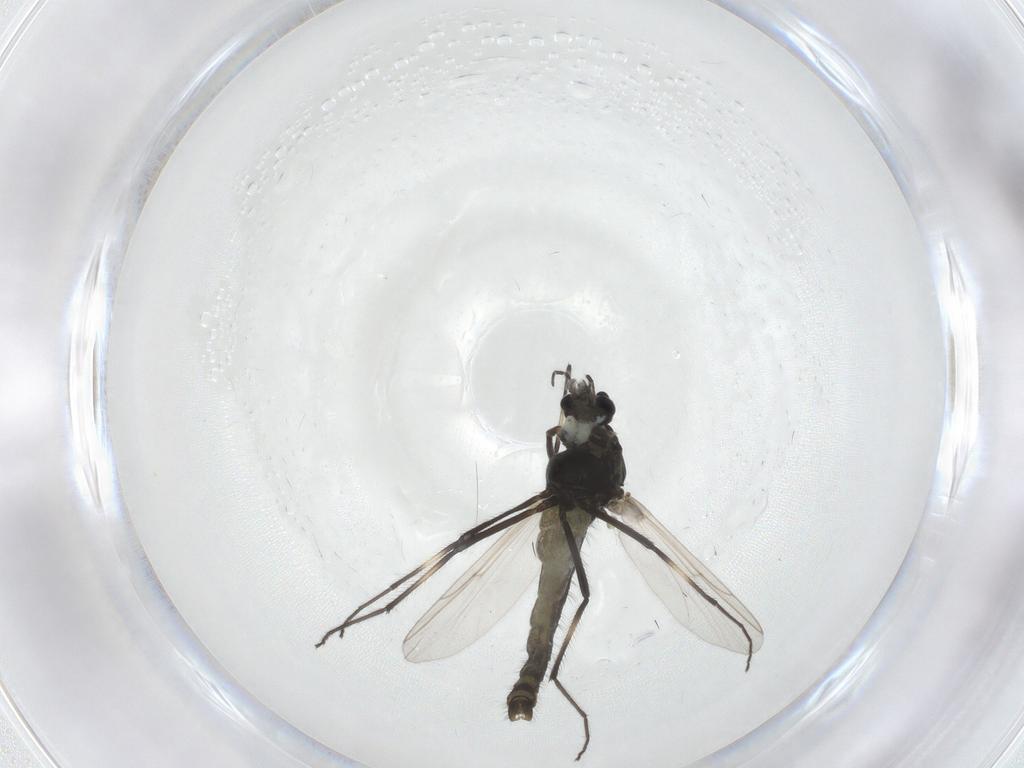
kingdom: Animalia
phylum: Arthropoda
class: Insecta
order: Diptera
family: Chironomidae
